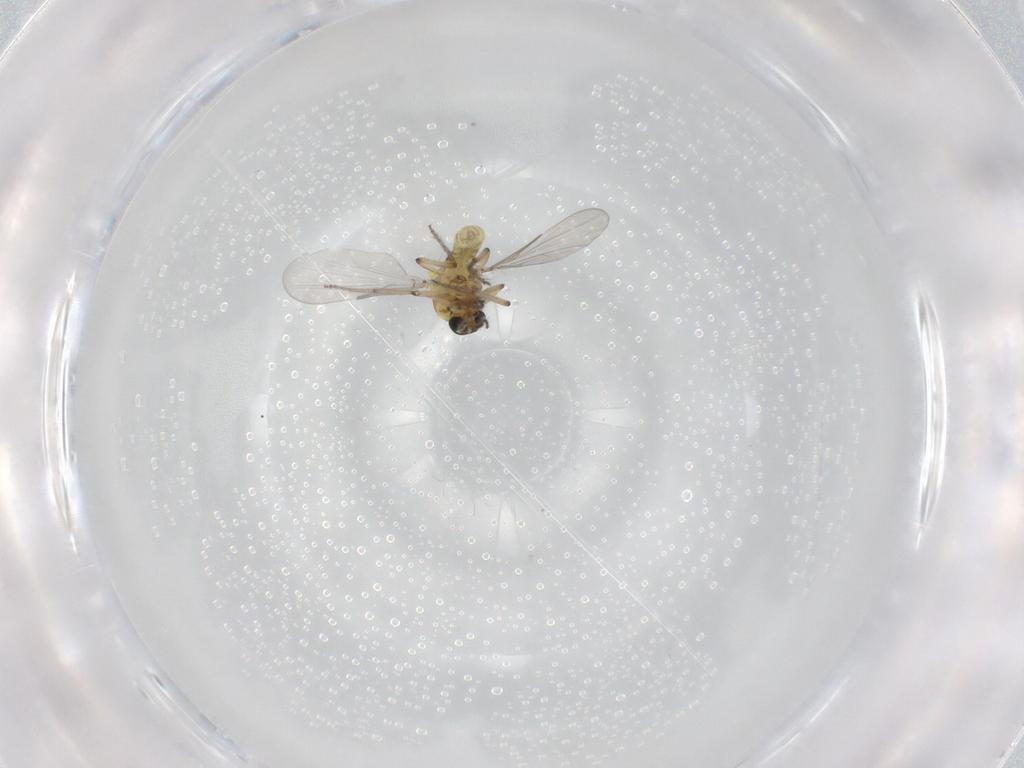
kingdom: Animalia
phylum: Arthropoda
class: Insecta
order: Diptera
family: Ceratopogonidae
